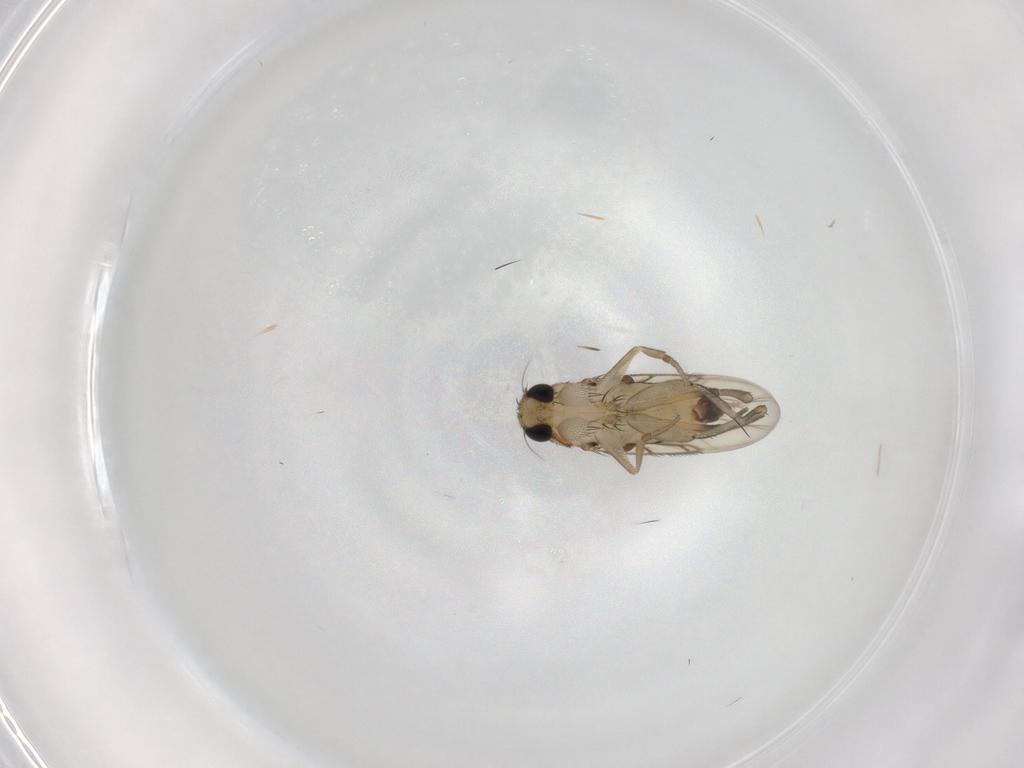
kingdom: Animalia
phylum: Arthropoda
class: Insecta
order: Diptera
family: Phoridae
